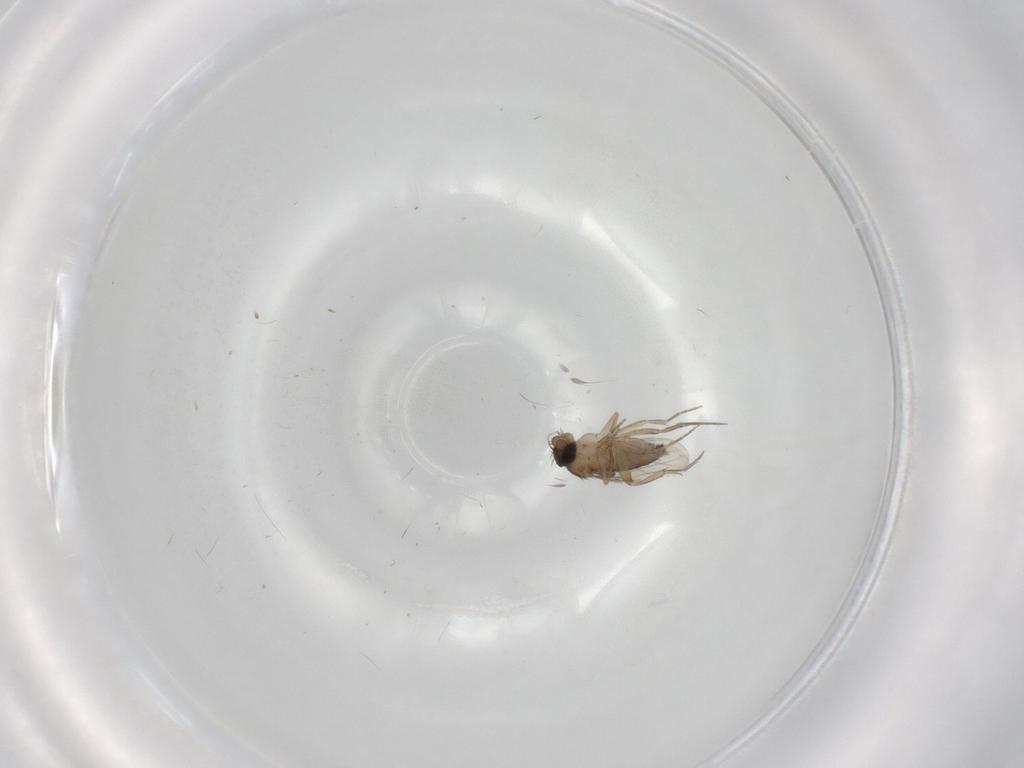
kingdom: Animalia
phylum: Arthropoda
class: Insecta
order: Diptera
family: Phoridae
